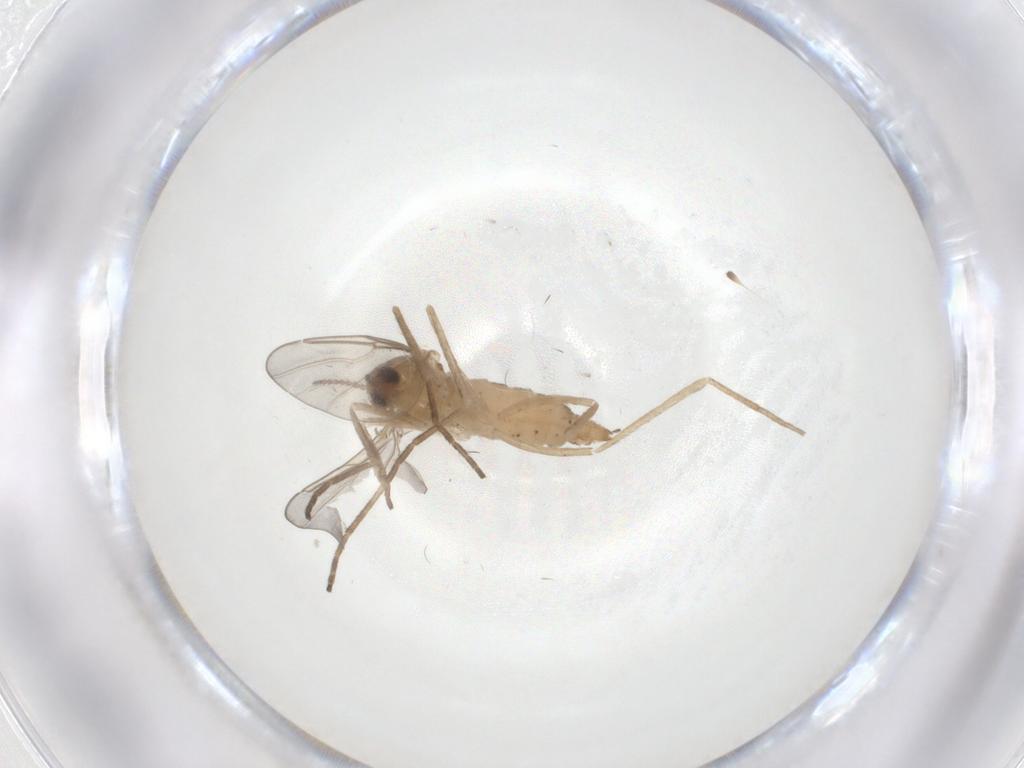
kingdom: Animalia
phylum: Arthropoda
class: Insecta
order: Diptera
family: Cecidomyiidae
